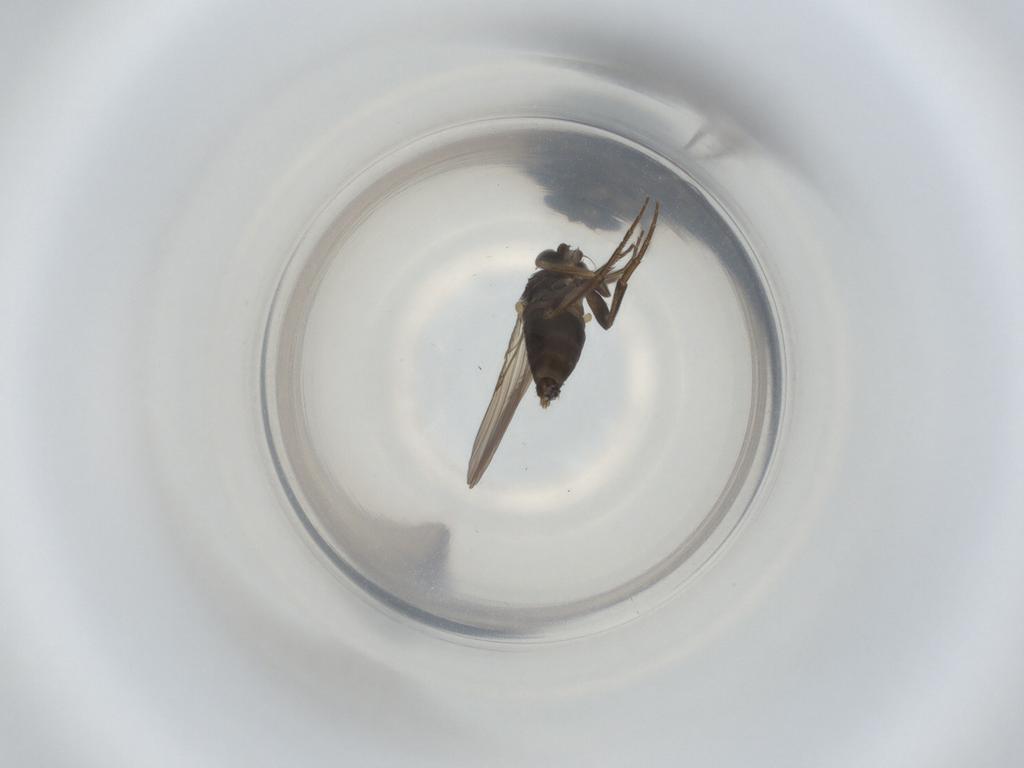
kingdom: Animalia
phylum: Arthropoda
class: Insecta
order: Diptera
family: Phoridae
